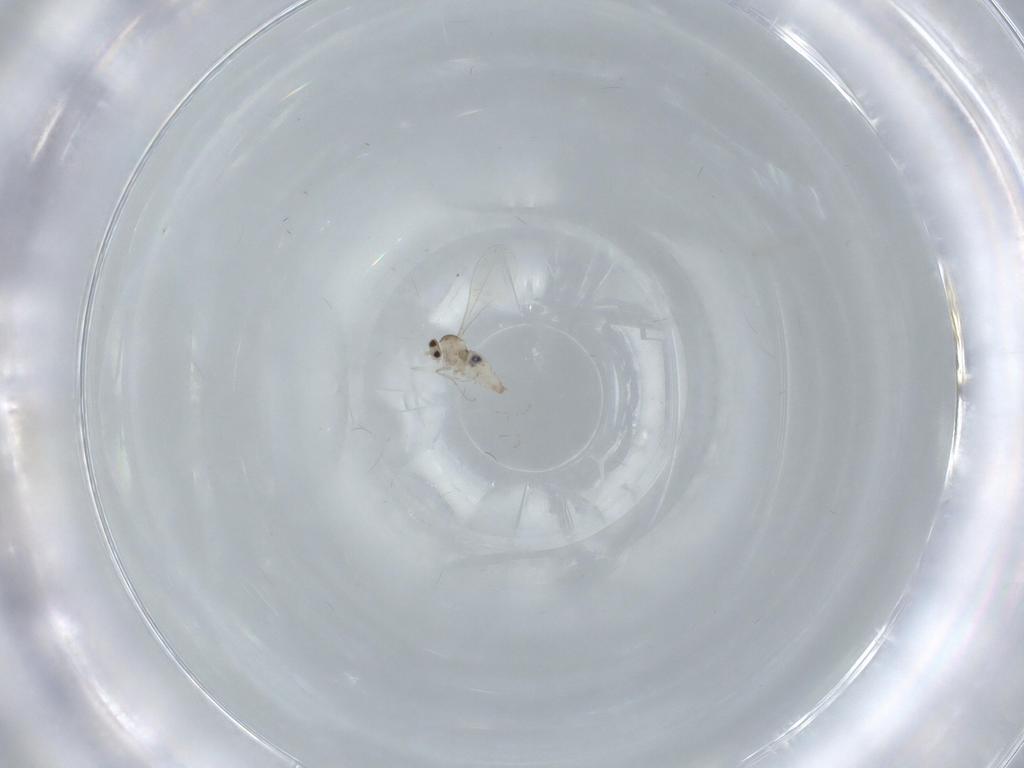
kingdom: Animalia
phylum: Arthropoda
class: Insecta
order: Diptera
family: Cecidomyiidae
